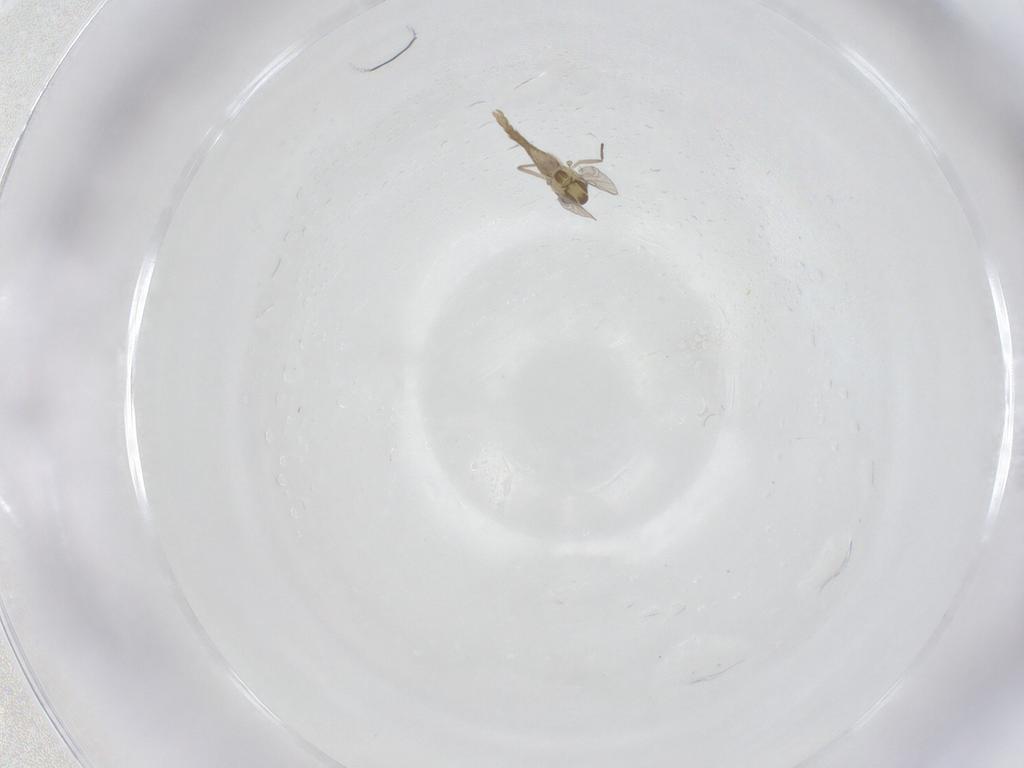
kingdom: Animalia
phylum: Arthropoda
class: Insecta
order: Diptera
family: Chironomidae
